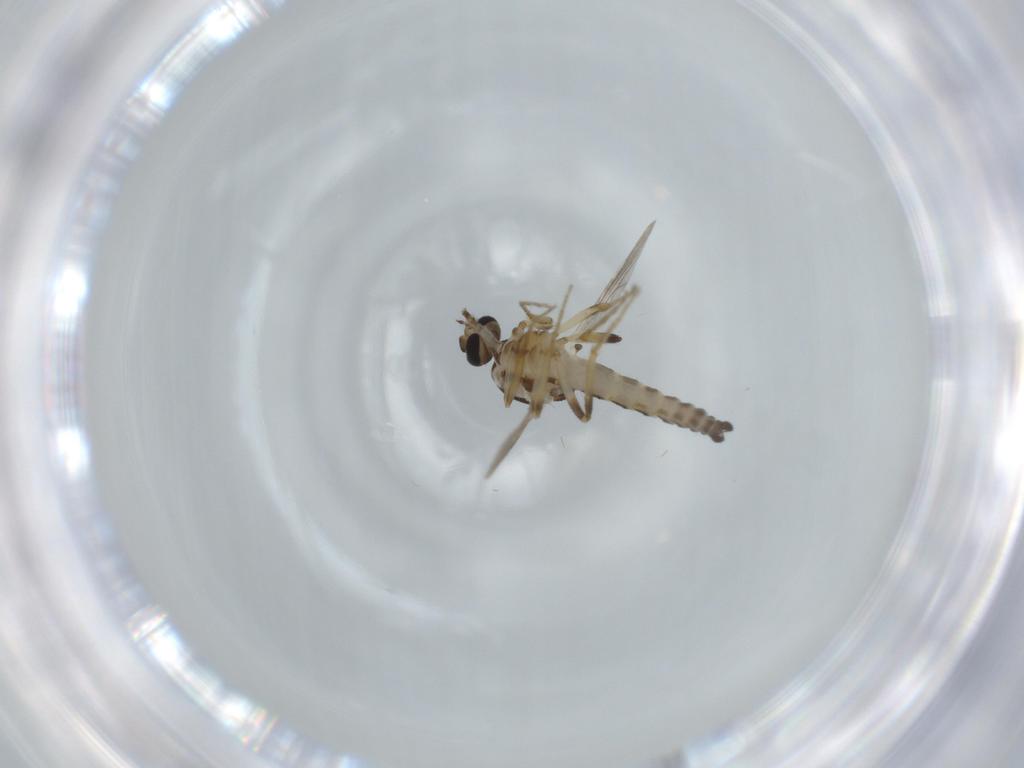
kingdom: Animalia
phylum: Arthropoda
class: Insecta
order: Diptera
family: Ceratopogonidae
